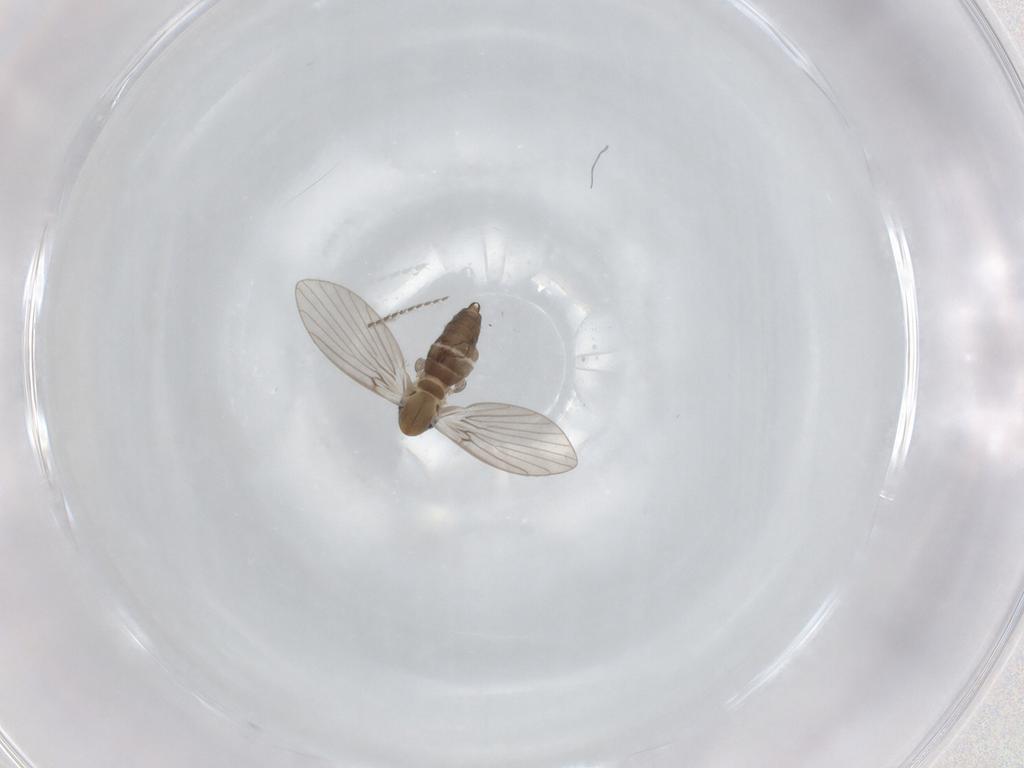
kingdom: Animalia
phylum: Arthropoda
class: Insecta
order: Diptera
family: Psychodidae
